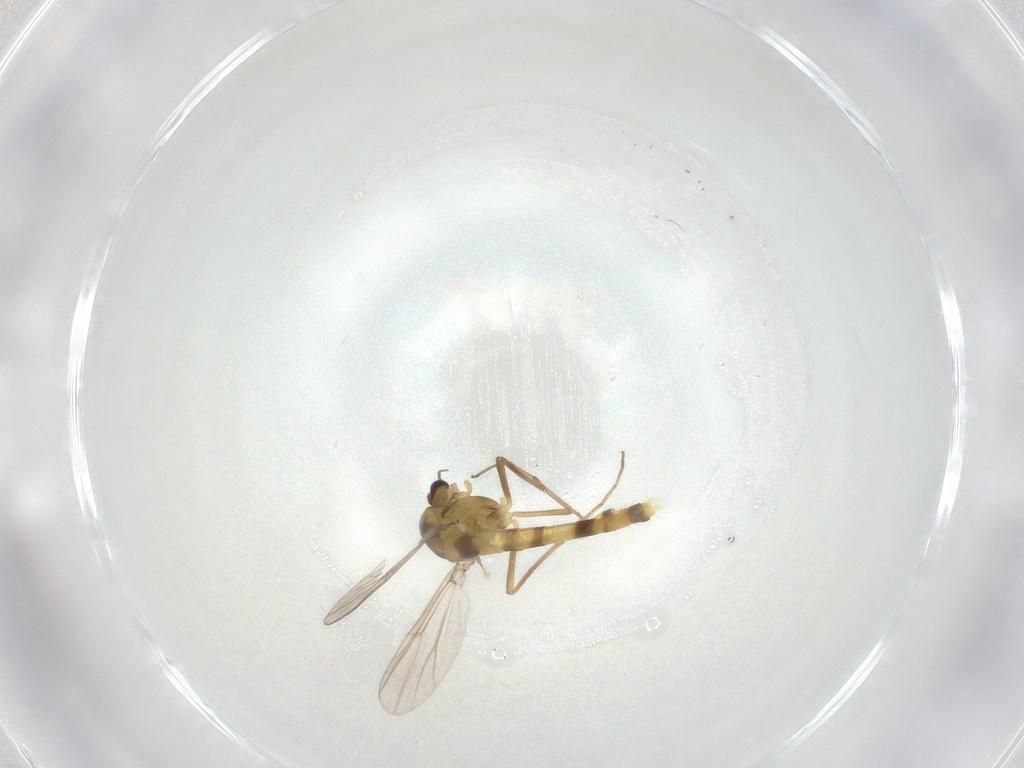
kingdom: Animalia
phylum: Arthropoda
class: Insecta
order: Diptera
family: Chironomidae
